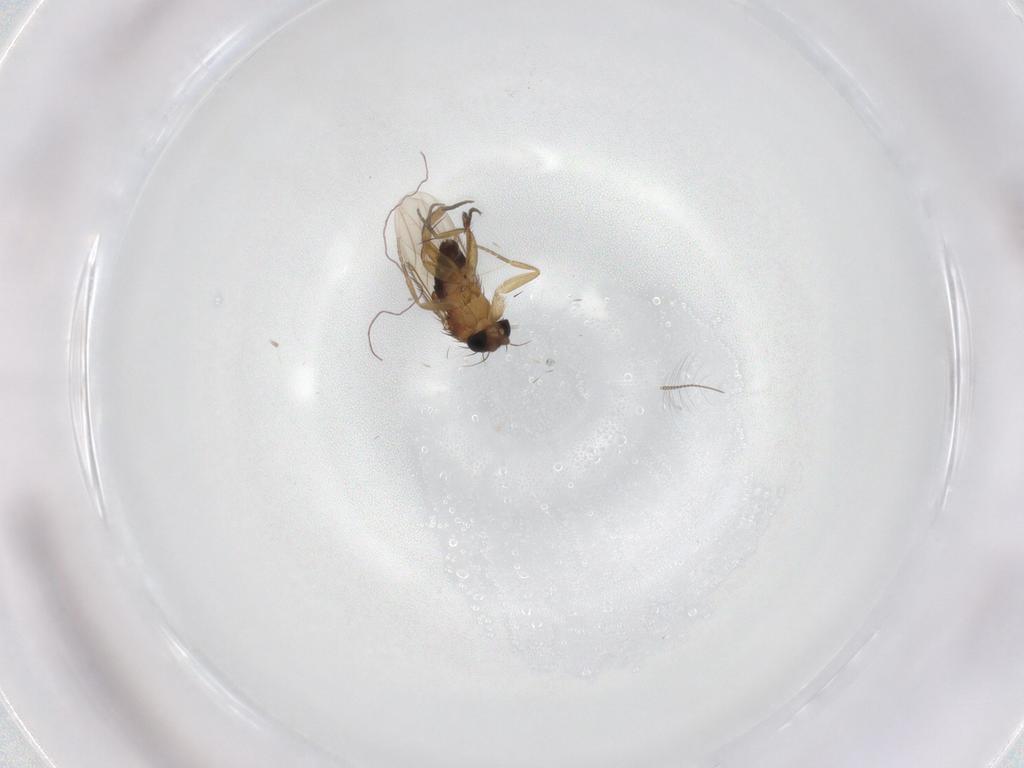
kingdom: Animalia
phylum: Arthropoda
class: Insecta
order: Diptera
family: Phoridae
